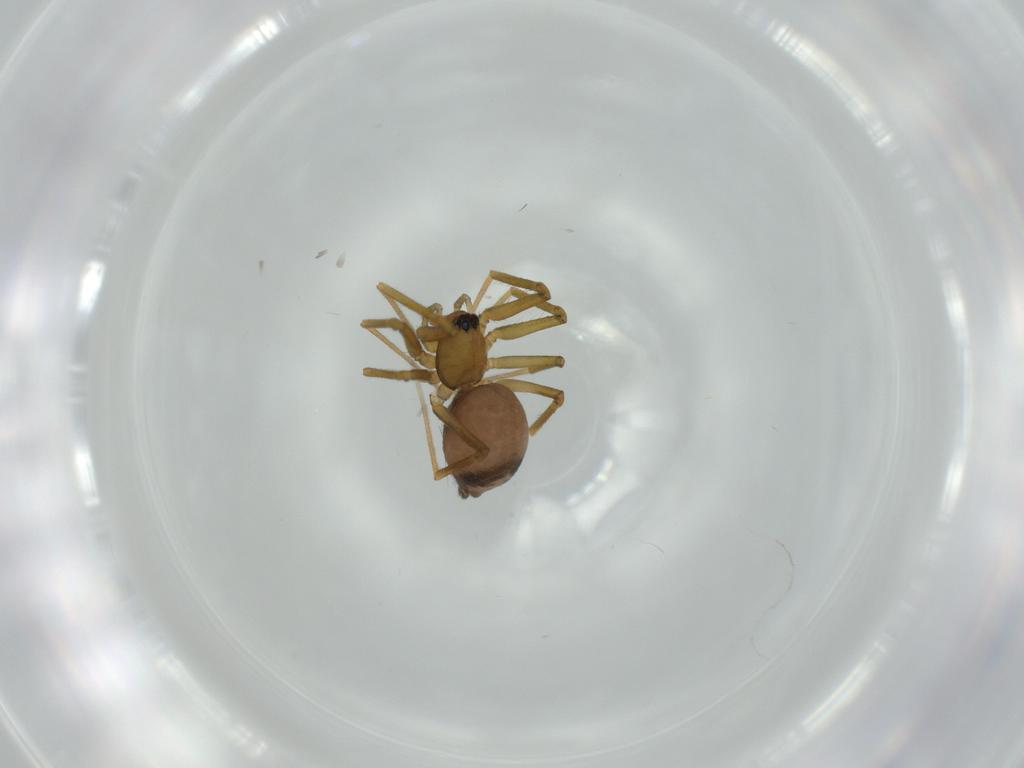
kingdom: Animalia
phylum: Arthropoda
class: Arachnida
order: Araneae
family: Linyphiidae
